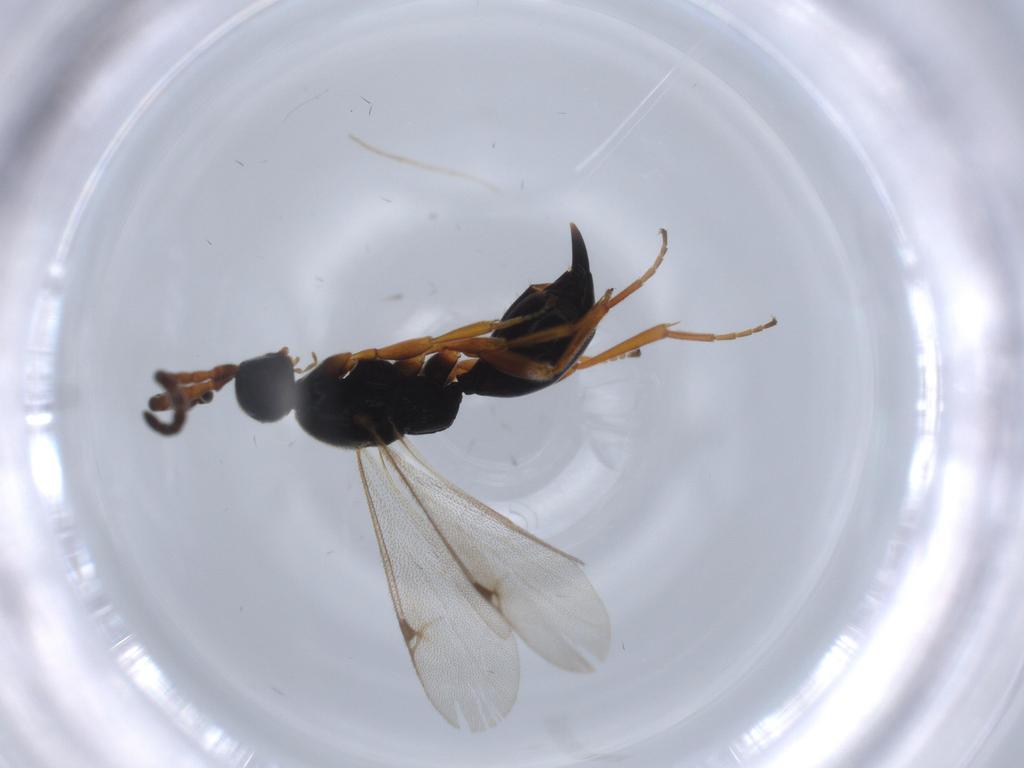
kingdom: Animalia
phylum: Arthropoda
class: Insecta
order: Hymenoptera
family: Proctotrupidae
